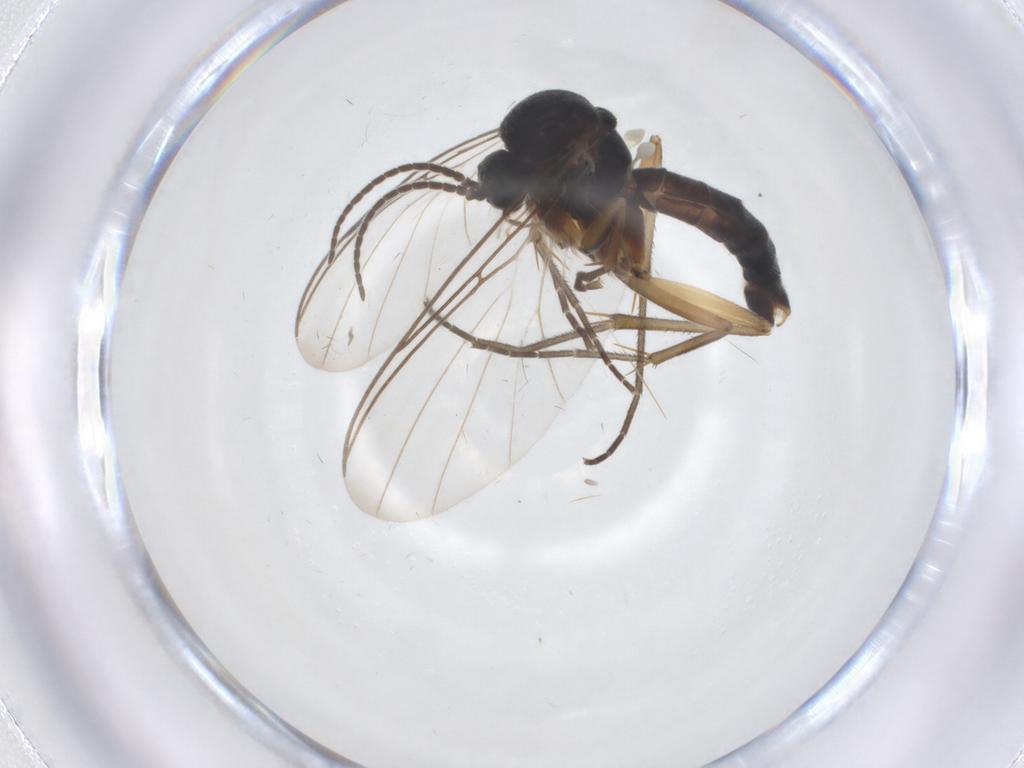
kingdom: Animalia
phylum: Arthropoda
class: Insecta
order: Diptera
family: Mycetophilidae
